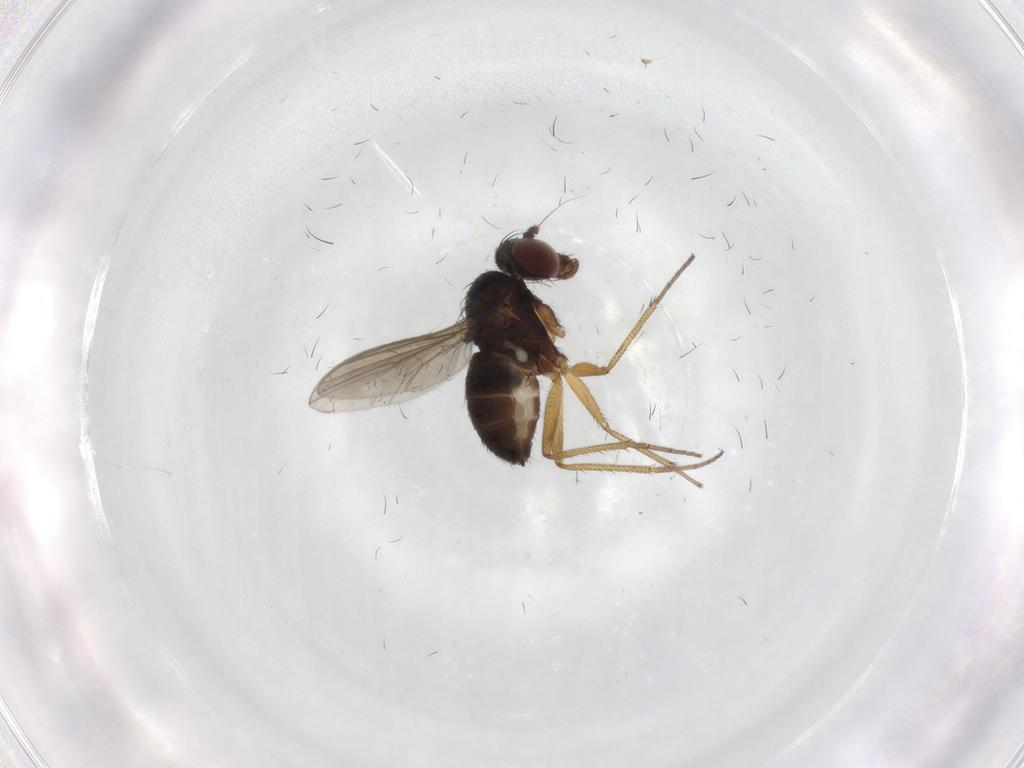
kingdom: Animalia
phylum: Arthropoda
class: Insecta
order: Diptera
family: Dolichopodidae
